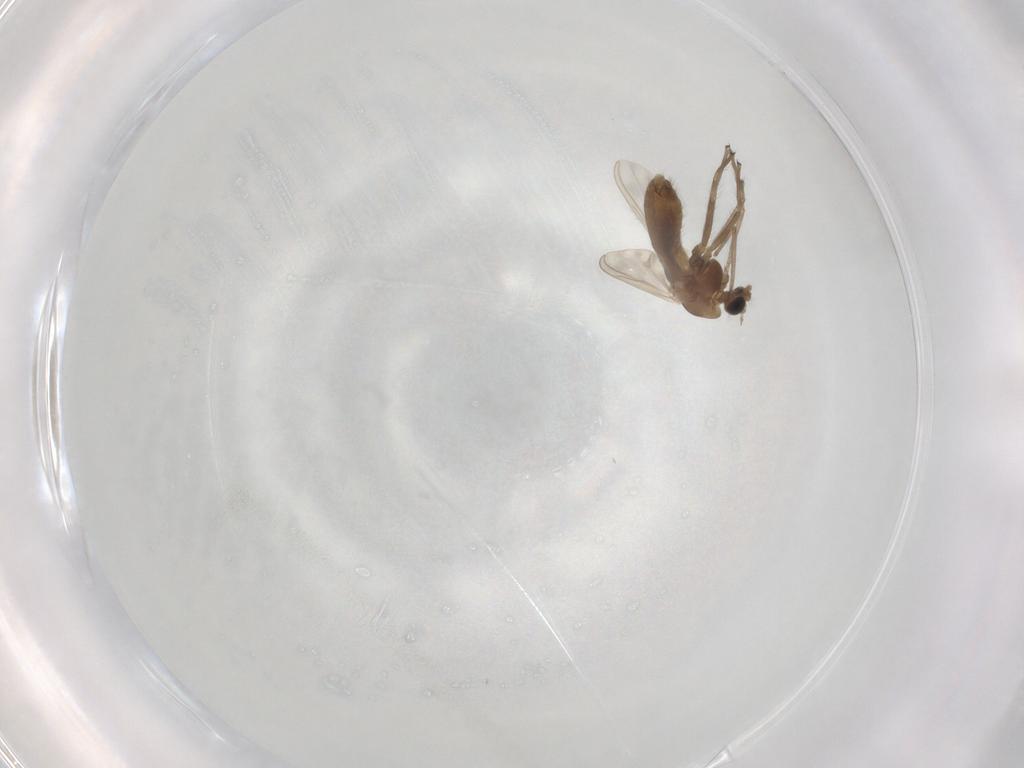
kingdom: Animalia
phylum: Arthropoda
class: Insecta
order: Diptera
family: Chironomidae
